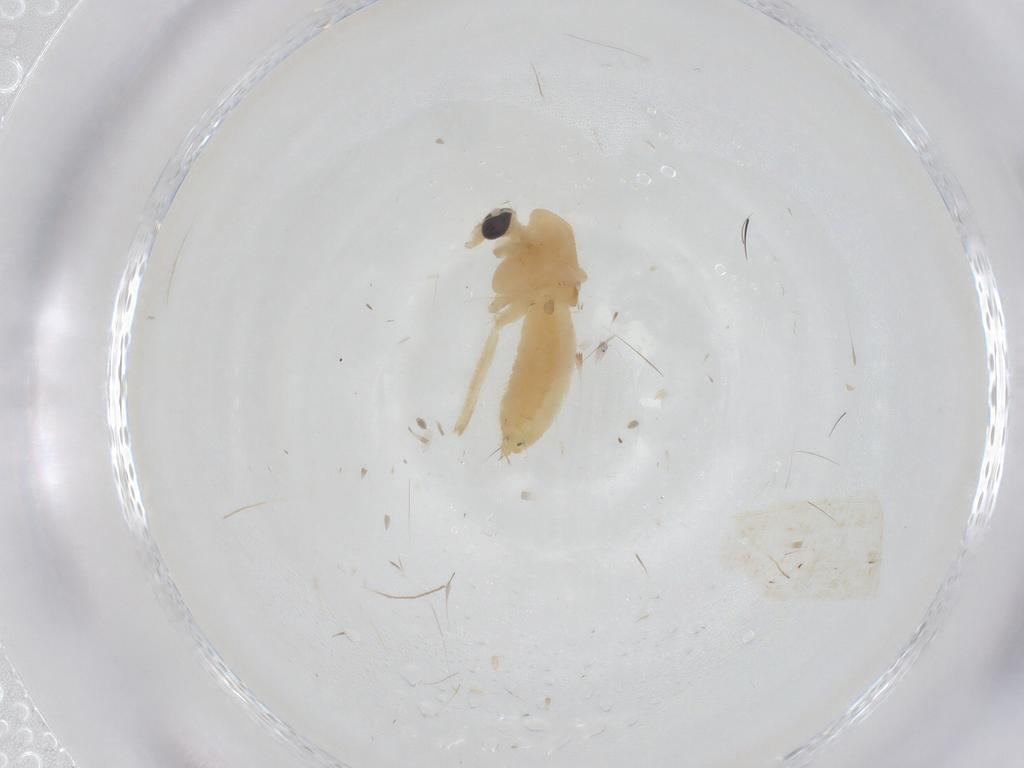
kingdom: Animalia
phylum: Arthropoda
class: Insecta
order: Diptera
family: Chironomidae
